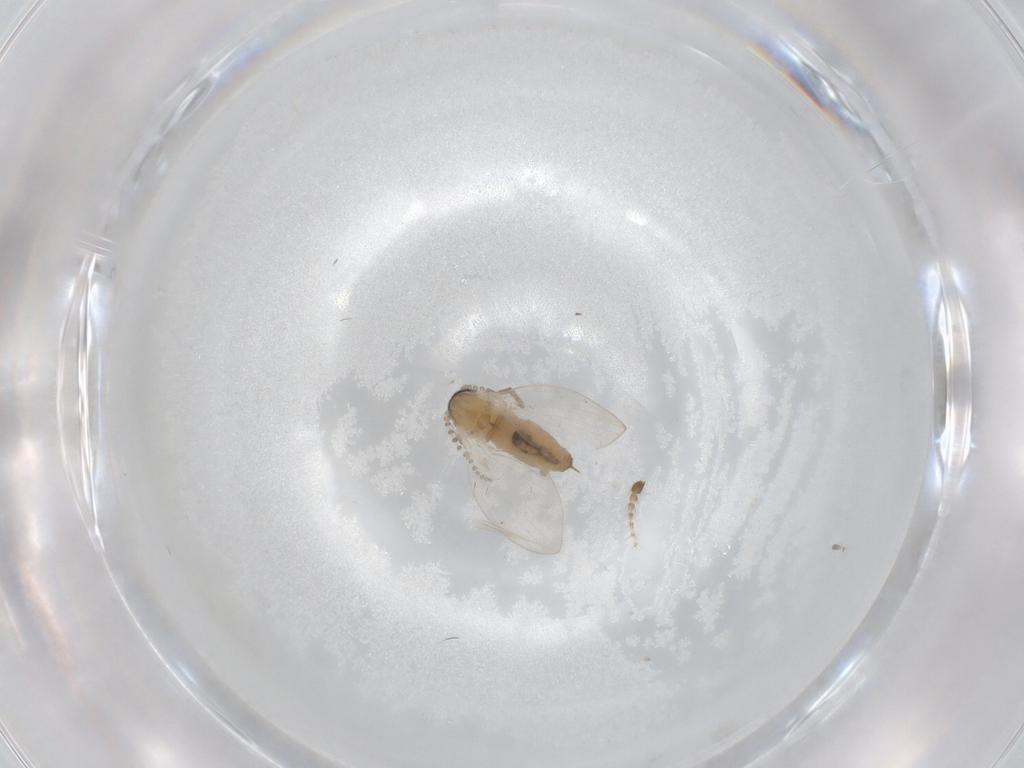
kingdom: Animalia
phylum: Arthropoda
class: Insecta
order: Diptera
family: Psychodidae
